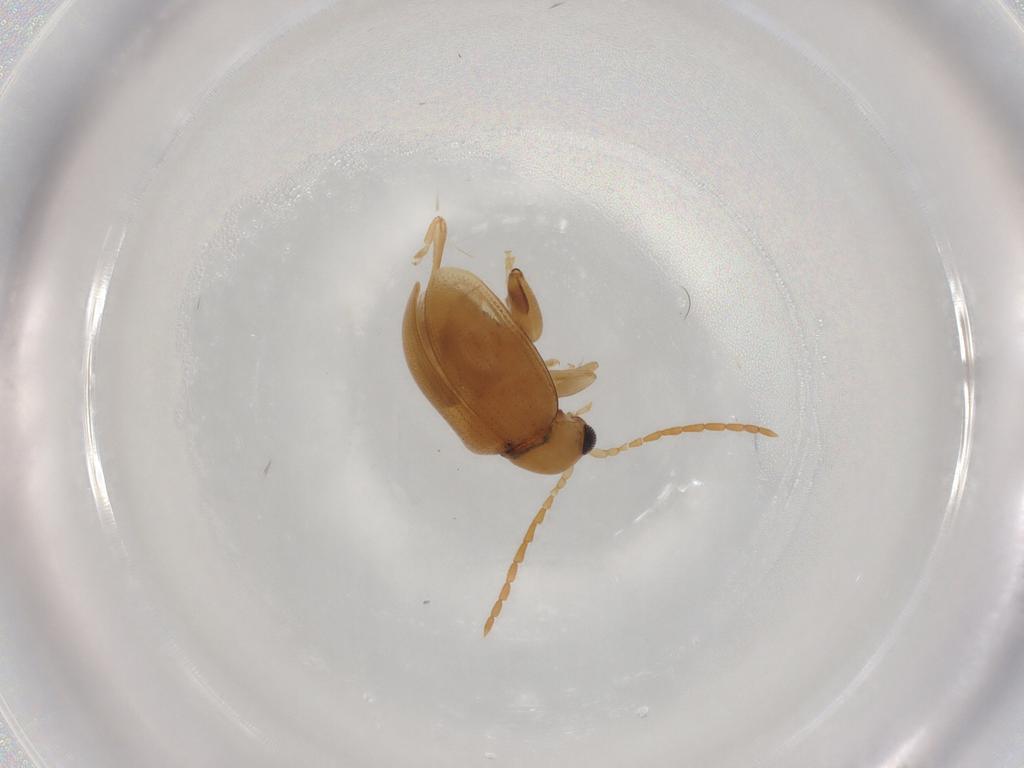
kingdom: Animalia
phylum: Arthropoda
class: Insecta
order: Coleoptera
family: Chrysomelidae
